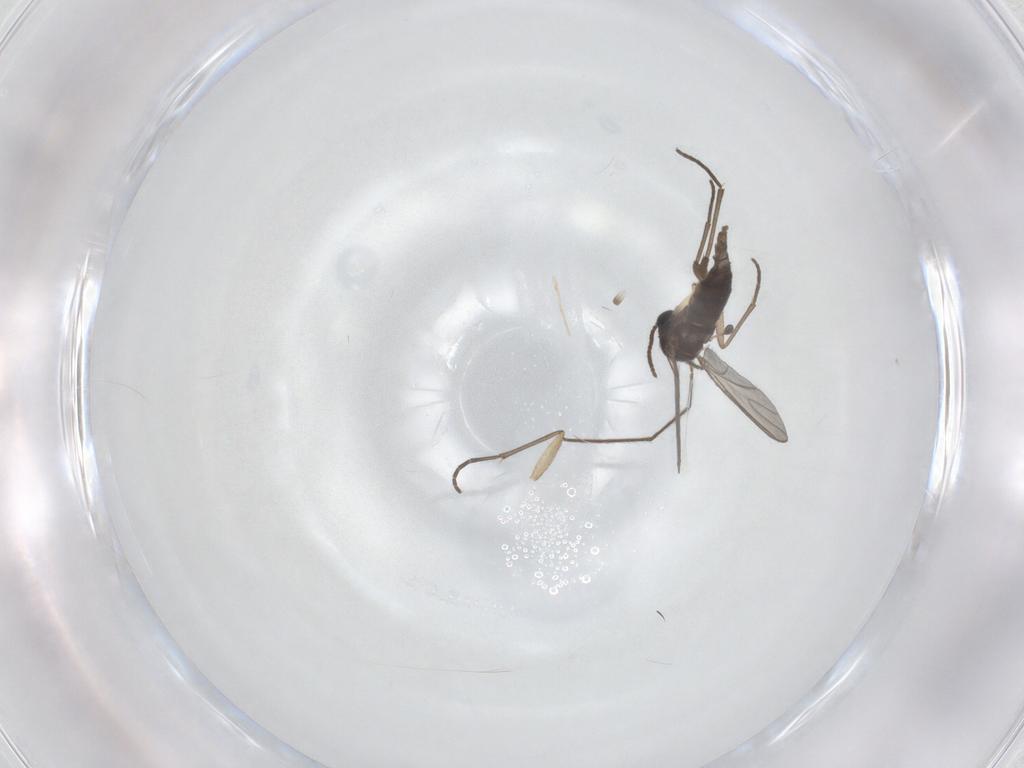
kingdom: Animalia
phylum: Arthropoda
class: Insecta
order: Diptera
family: Chironomidae
